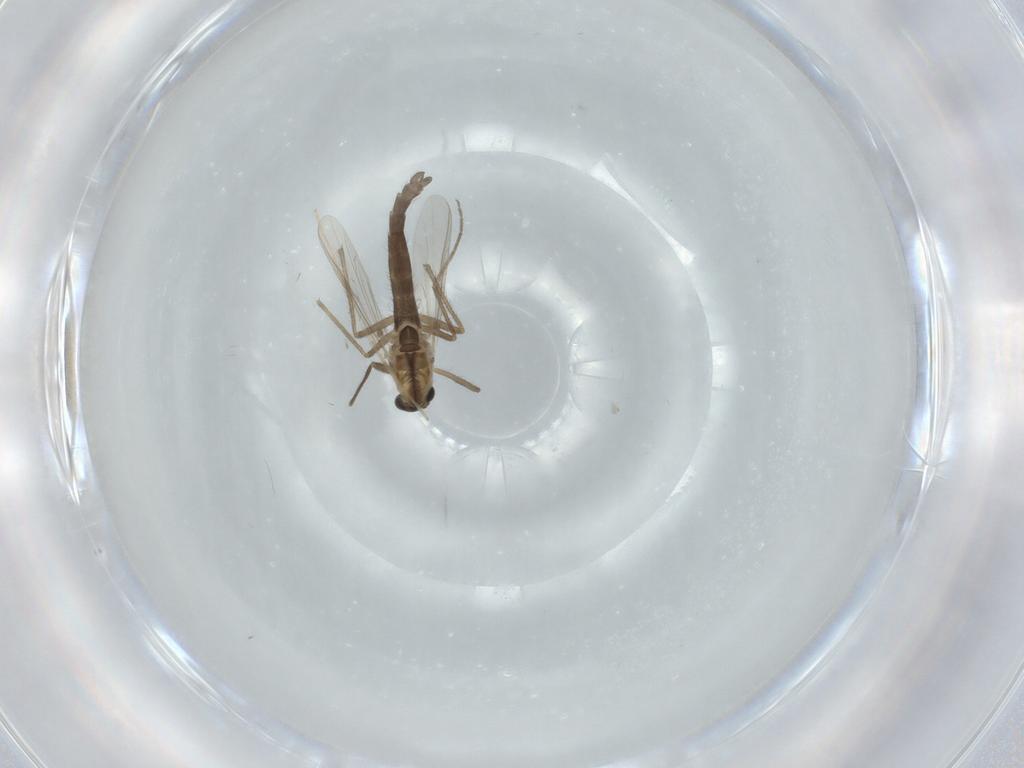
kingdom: Animalia
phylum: Arthropoda
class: Insecta
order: Diptera
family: Chironomidae
